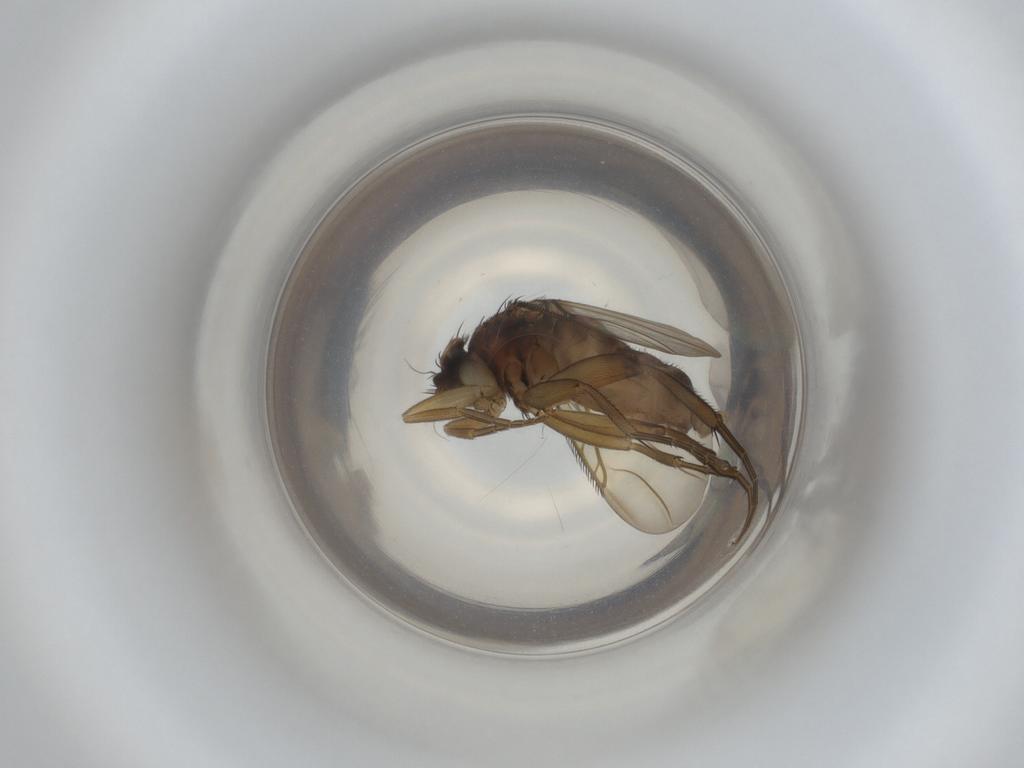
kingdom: Animalia
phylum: Arthropoda
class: Insecta
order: Diptera
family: Phoridae
